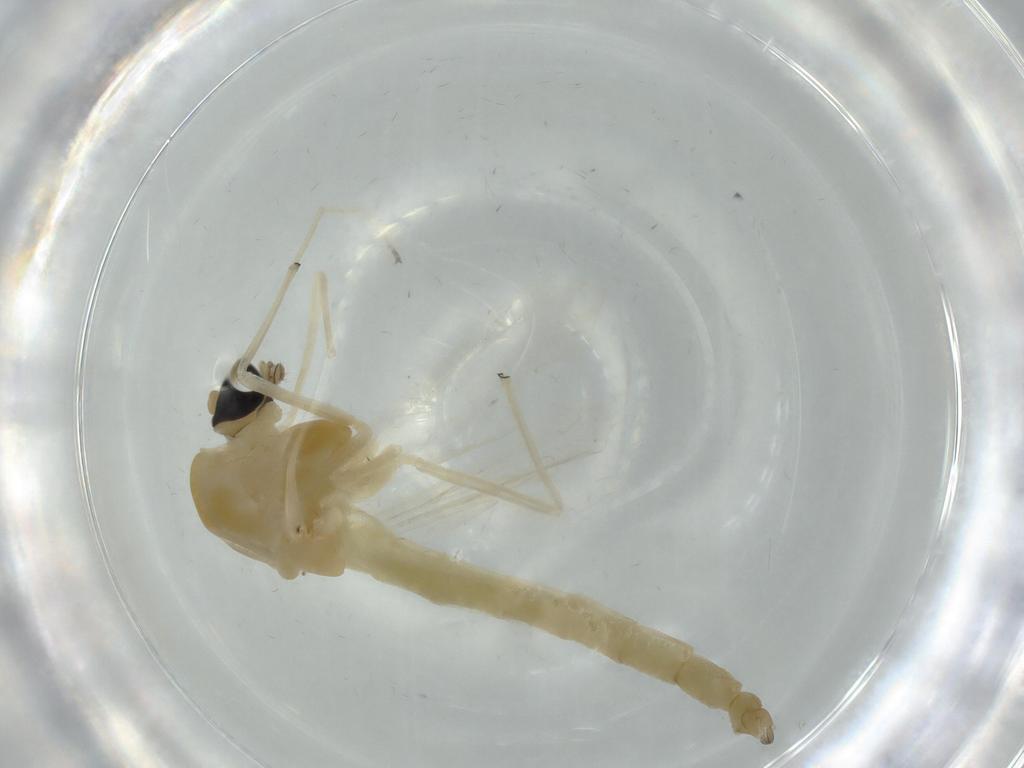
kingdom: Animalia
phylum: Arthropoda
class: Insecta
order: Diptera
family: Chironomidae
